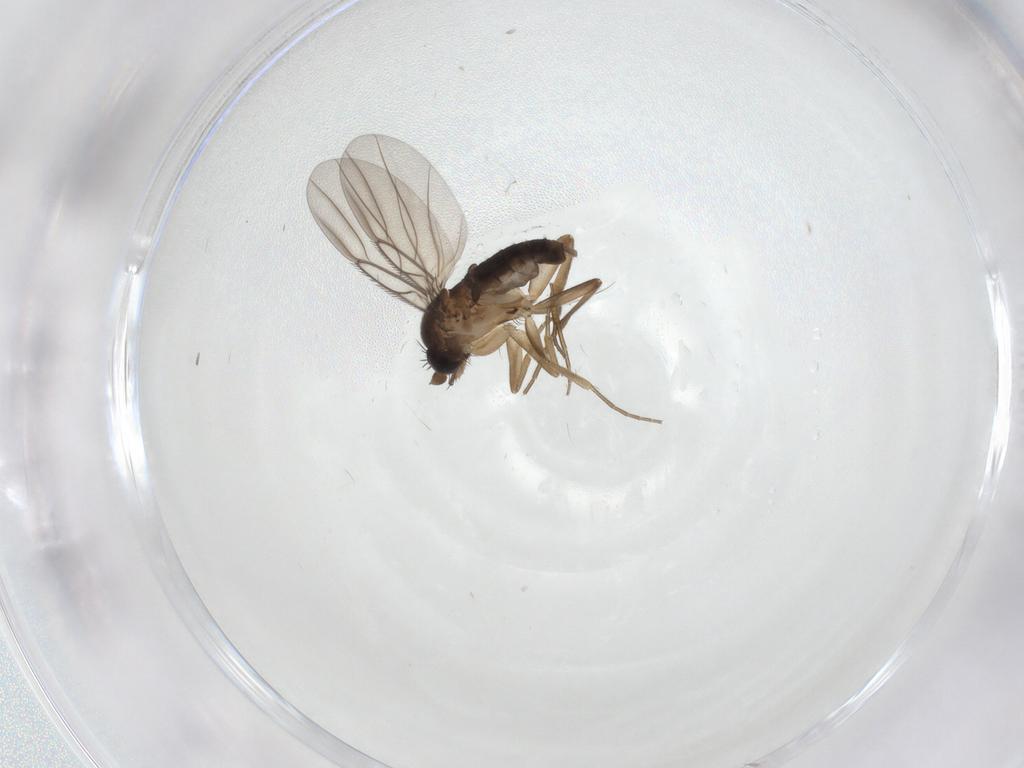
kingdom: Animalia
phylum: Arthropoda
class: Insecta
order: Diptera
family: Phoridae
